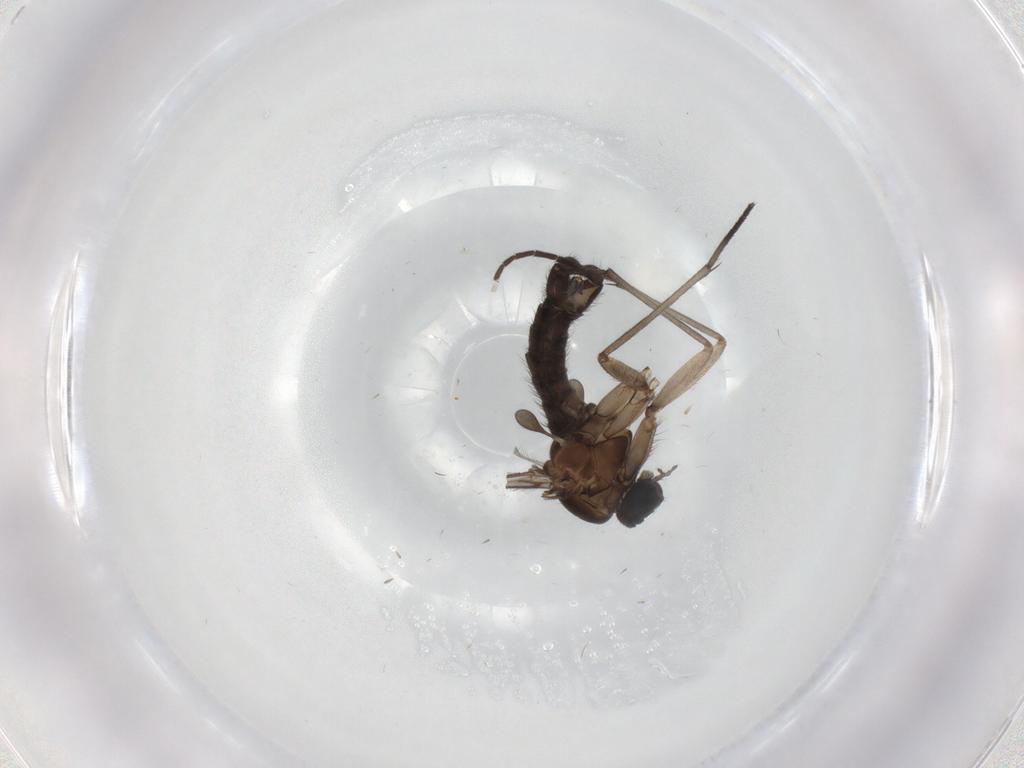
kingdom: Animalia
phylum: Arthropoda
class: Insecta
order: Diptera
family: Sciaridae
